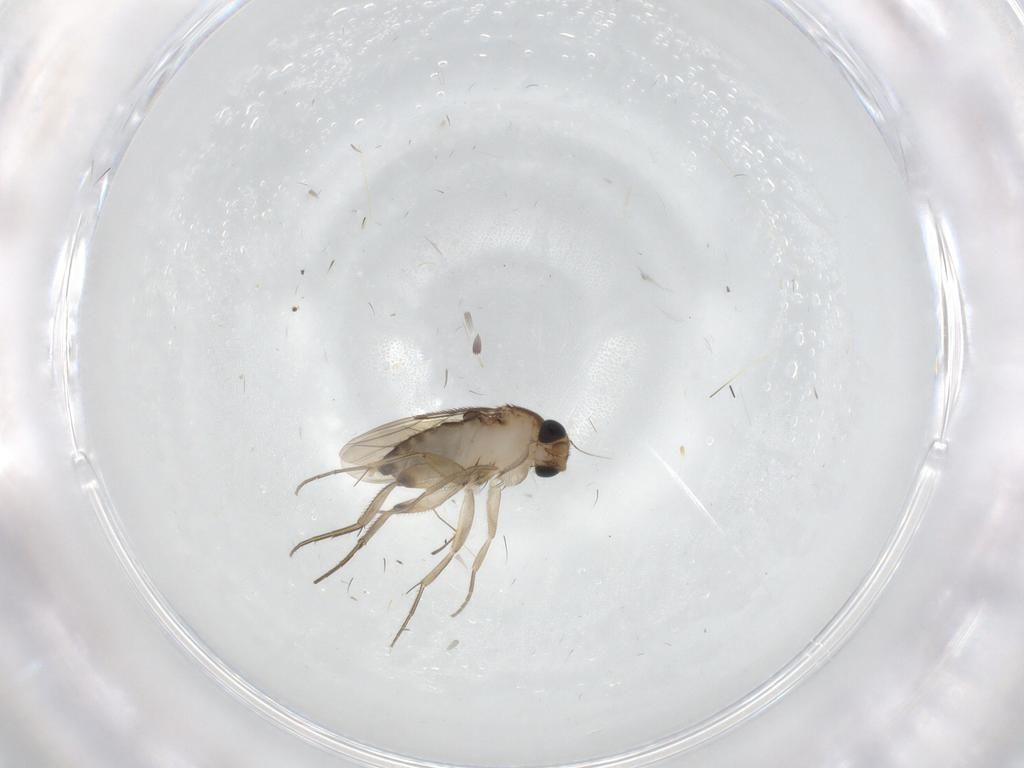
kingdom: Animalia
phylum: Arthropoda
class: Insecta
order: Diptera
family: Phoridae
